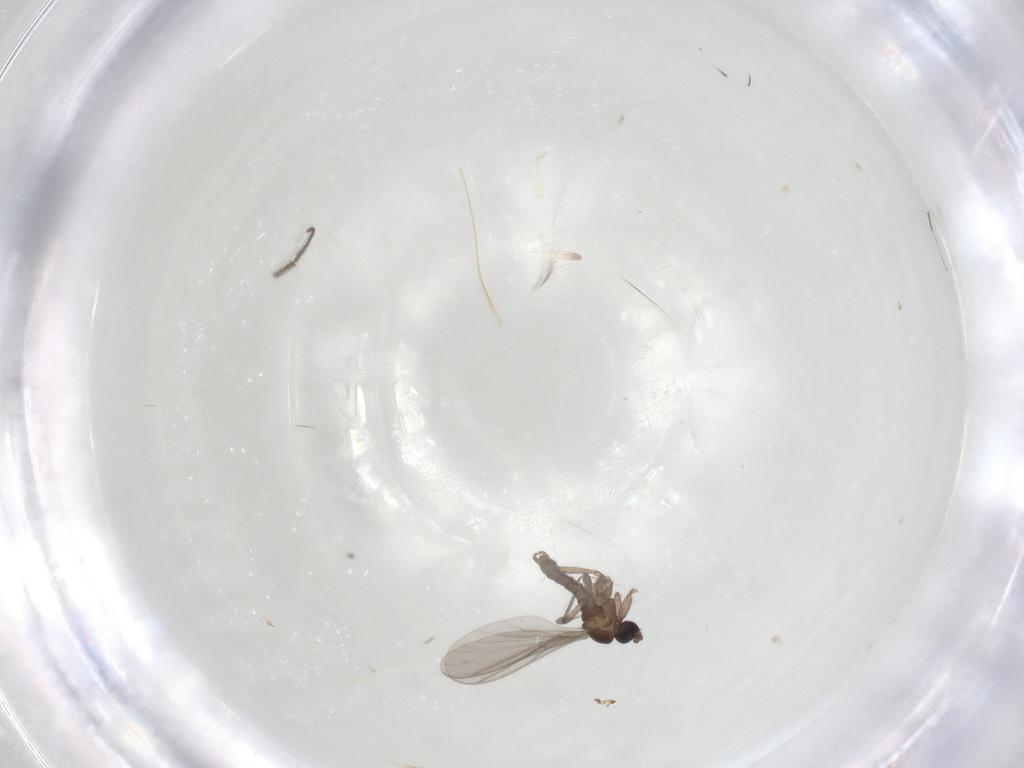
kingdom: Animalia
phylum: Arthropoda
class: Insecta
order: Diptera
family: Sciaridae
